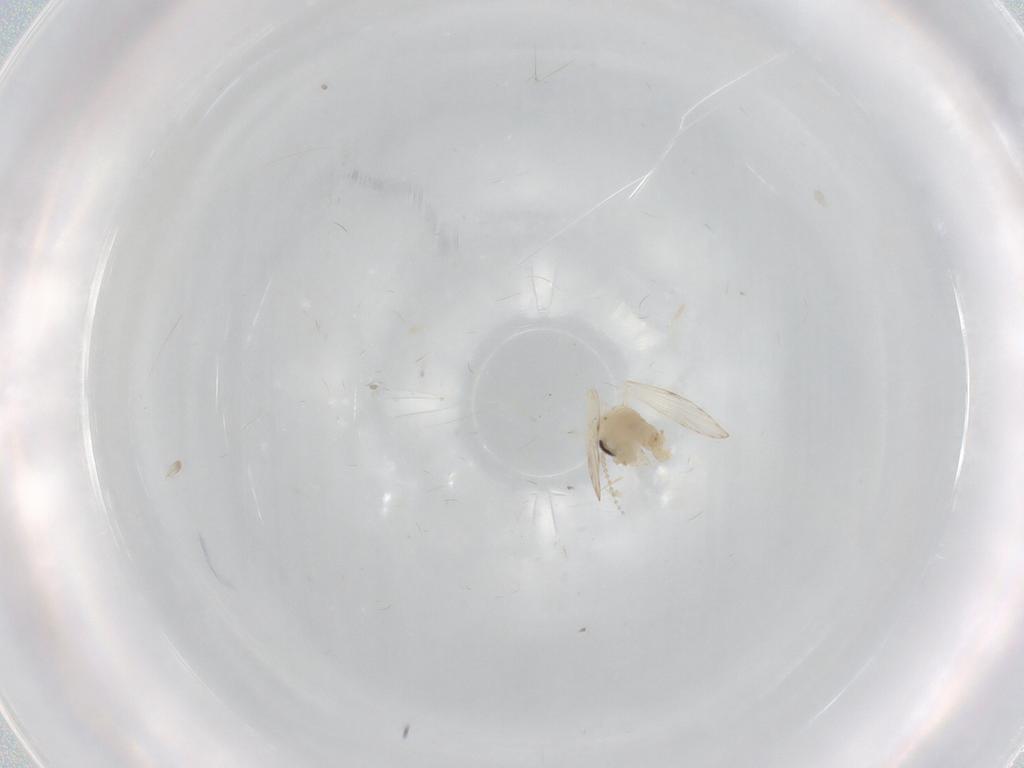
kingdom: Animalia
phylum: Arthropoda
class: Insecta
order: Diptera
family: Psychodidae
